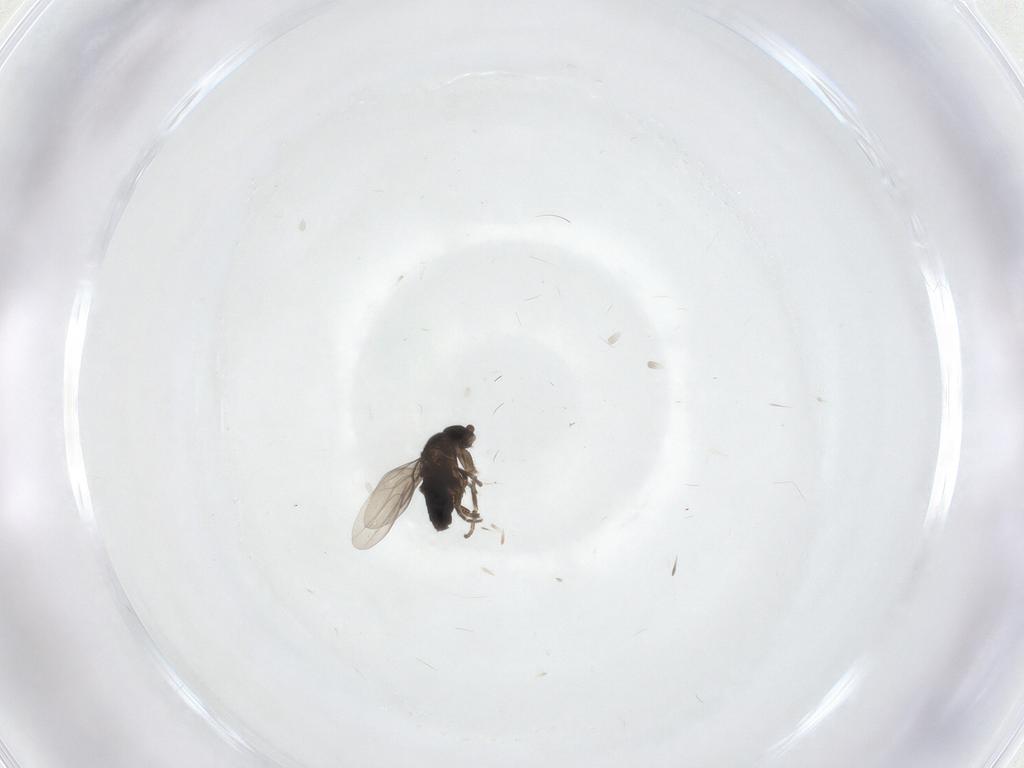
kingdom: Animalia
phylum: Arthropoda
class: Insecta
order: Diptera
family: Phoridae
